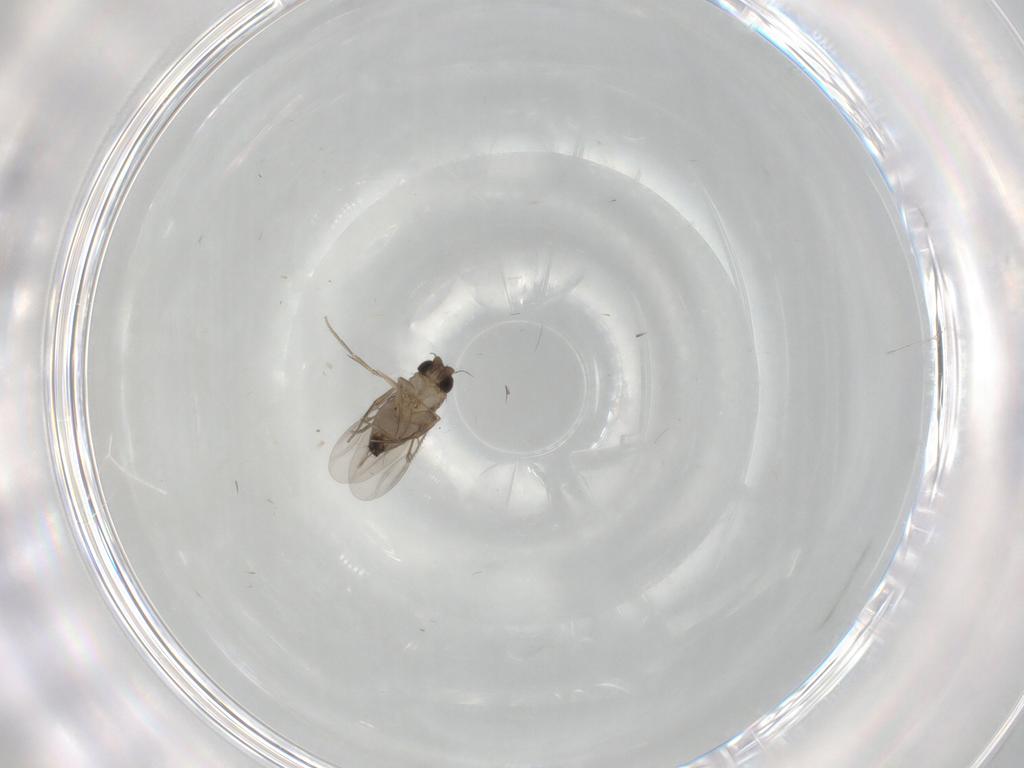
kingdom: Animalia
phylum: Arthropoda
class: Insecta
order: Diptera
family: Phoridae
